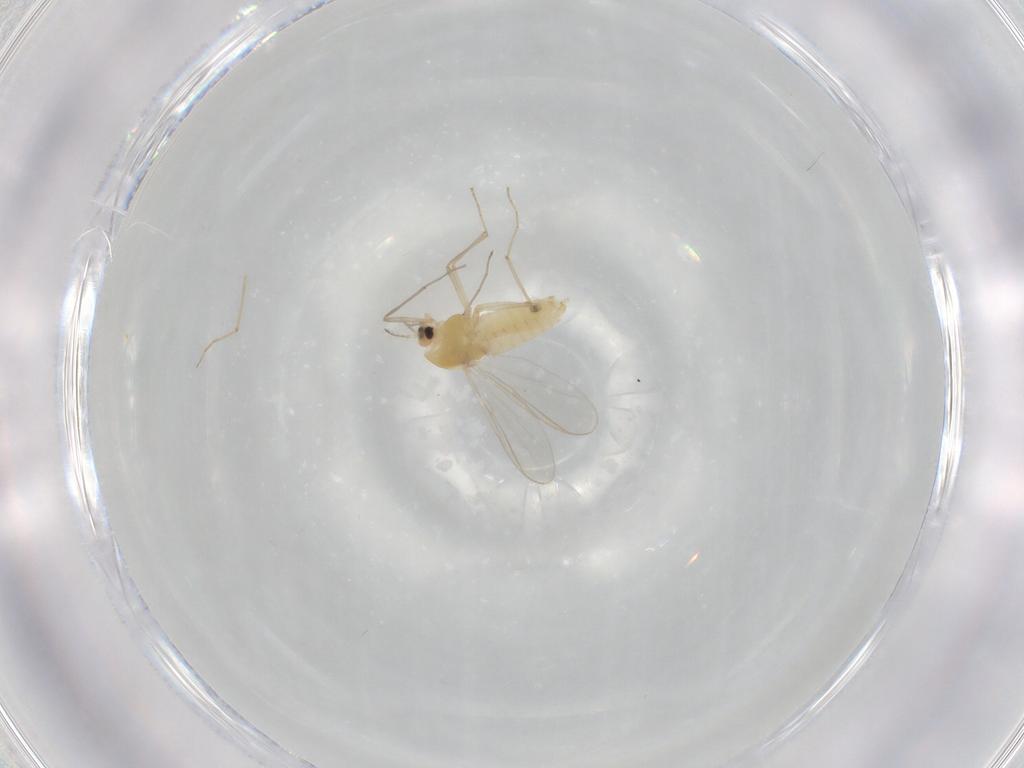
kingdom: Animalia
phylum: Arthropoda
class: Insecta
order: Diptera
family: Chironomidae
